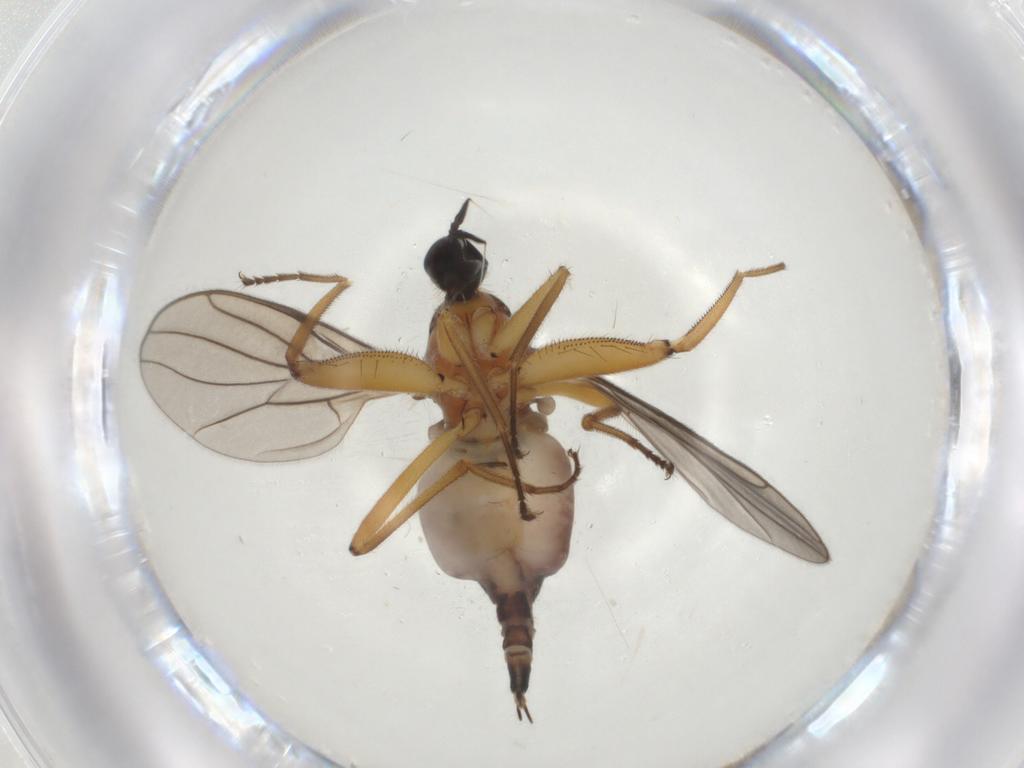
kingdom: Animalia
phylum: Arthropoda
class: Insecta
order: Diptera
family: Hybotidae
